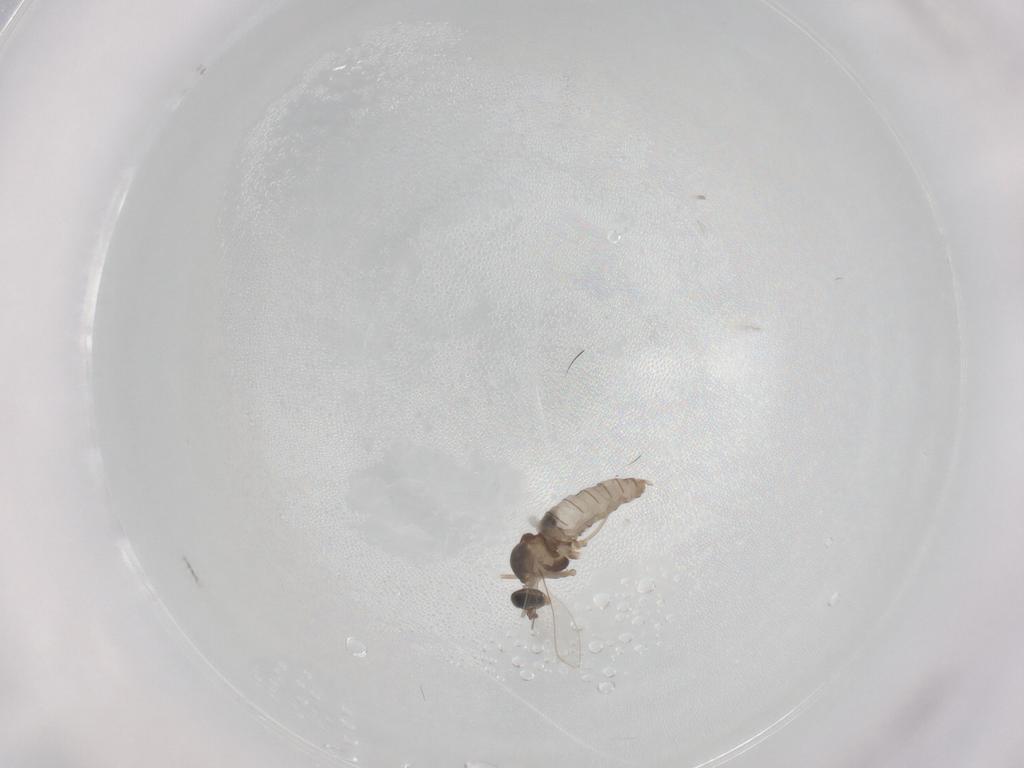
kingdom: Animalia
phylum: Arthropoda
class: Insecta
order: Diptera
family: Cecidomyiidae
